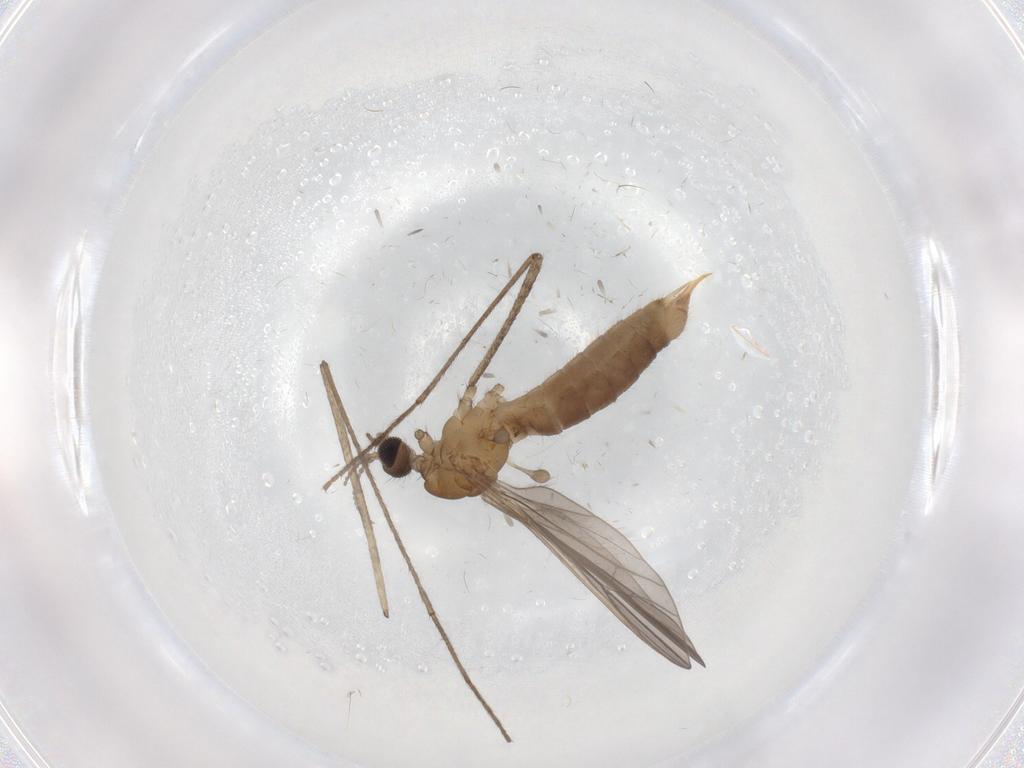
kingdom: Animalia
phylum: Arthropoda
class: Insecta
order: Diptera
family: Limoniidae
